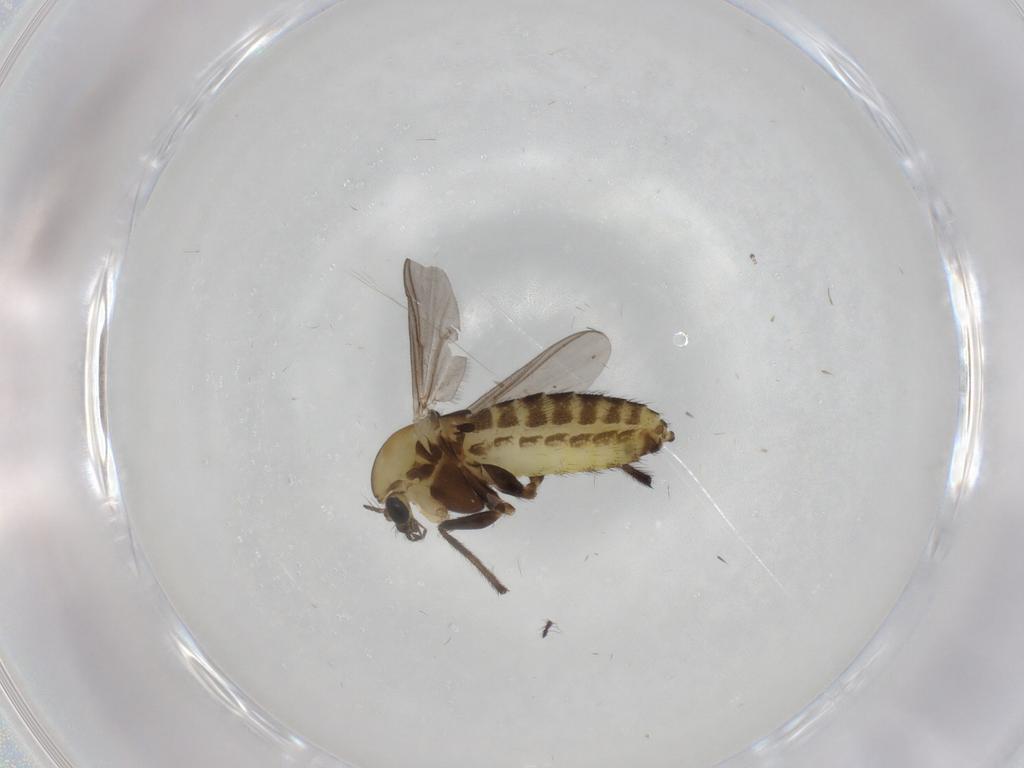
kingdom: Animalia
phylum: Arthropoda
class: Insecta
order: Diptera
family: Chironomidae
